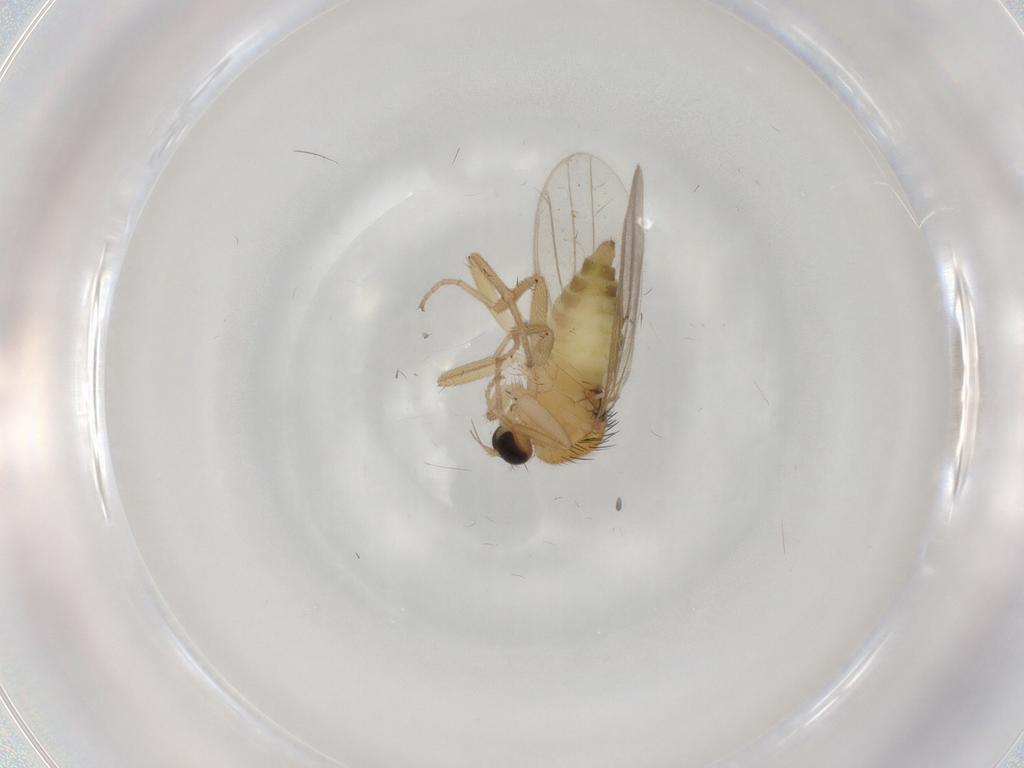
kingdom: Animalia
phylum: Arthropoda
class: Insecta
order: Diptera
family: Hybotidae
